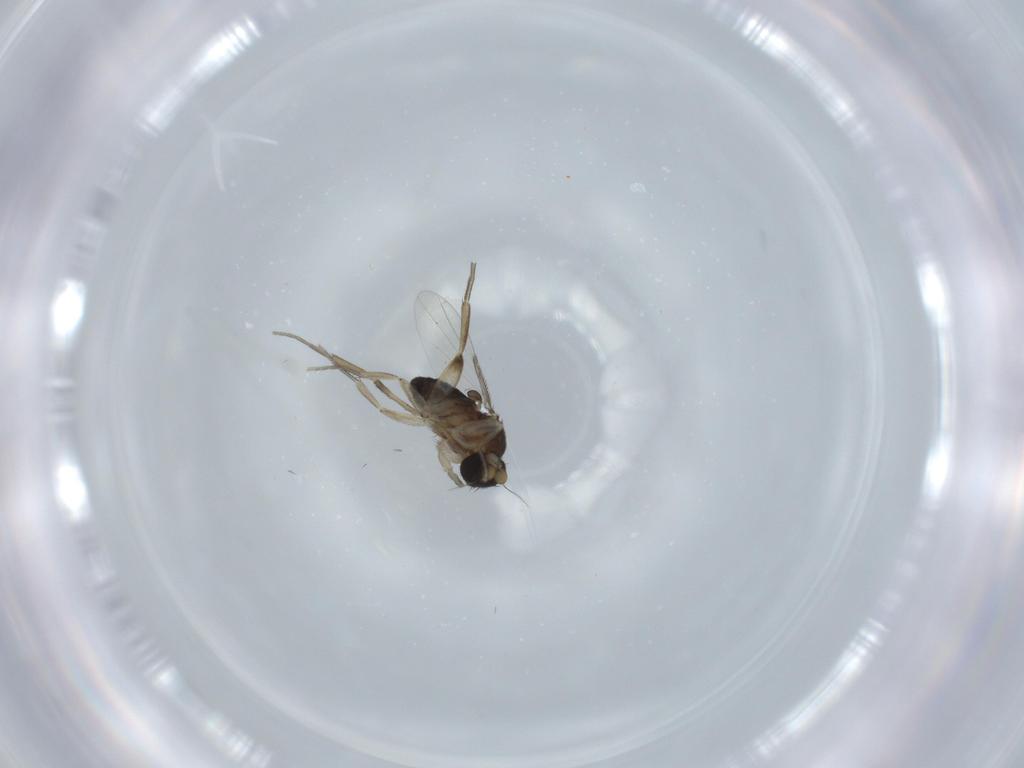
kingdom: Animalia
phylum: Arthropoda
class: Insecta
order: Diptera
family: Phoridae
